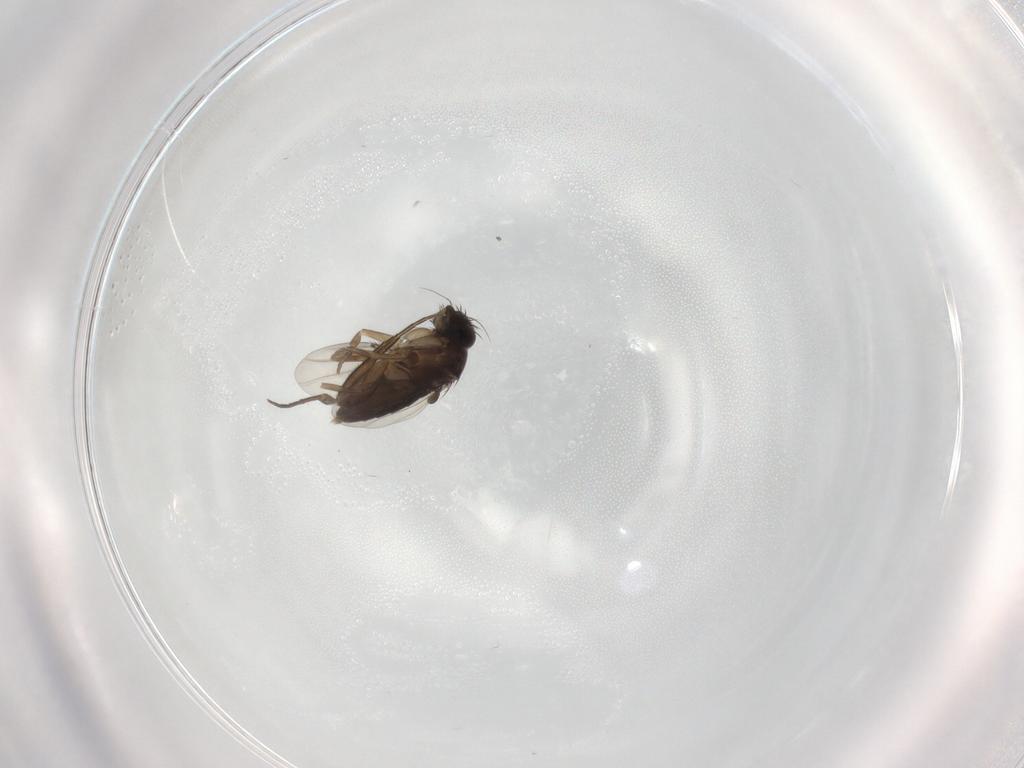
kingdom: Animalia
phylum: Arthropoda
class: Insecta
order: Diptera
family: Phoridae
